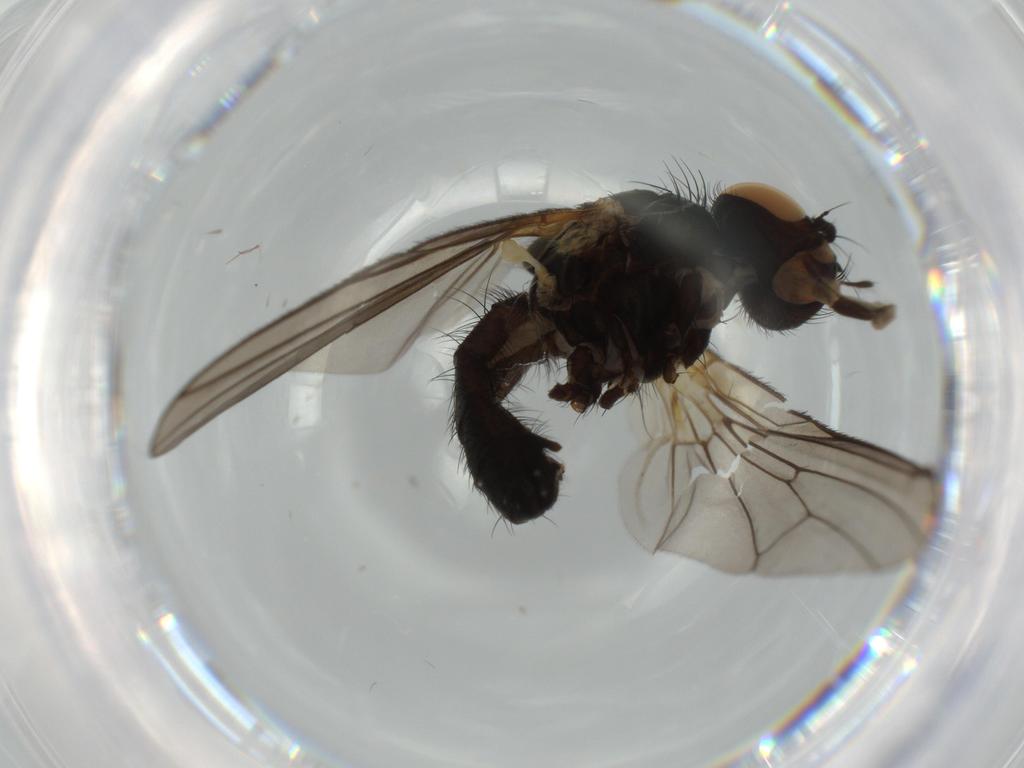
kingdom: Animalia
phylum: Arthropoda
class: Insecta
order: Diptera
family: Anthomyiidae
